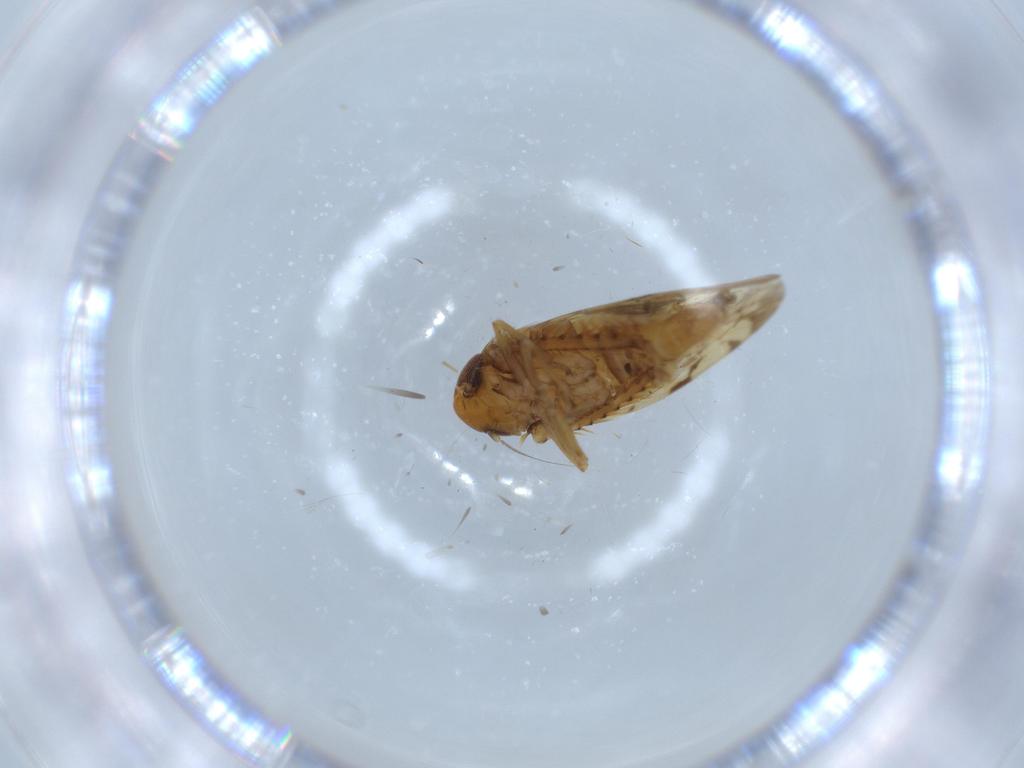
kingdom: Animalia
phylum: Arthropoda
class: Insecta
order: Hemiptera
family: Cicadellidae
